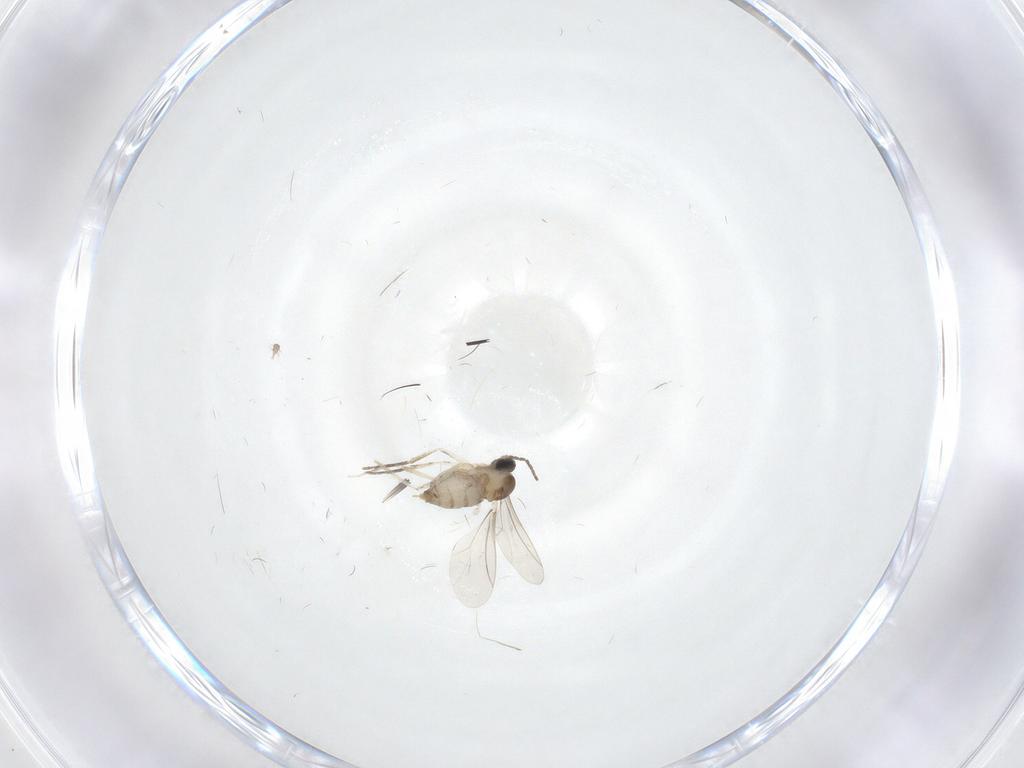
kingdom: Animalia
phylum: Arthropoda
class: Insecta
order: Diptera
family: Cecidomyiidae
